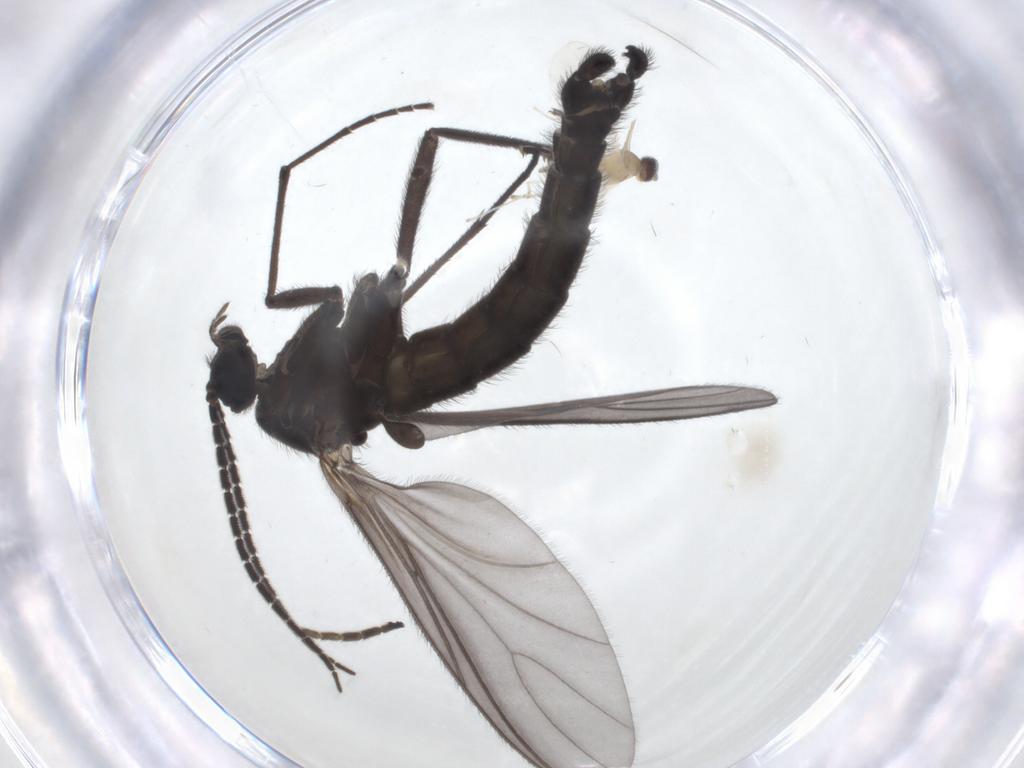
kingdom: Animalia
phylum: Arthropoda
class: Insecta
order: Diptera
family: Cecidomyiidae
